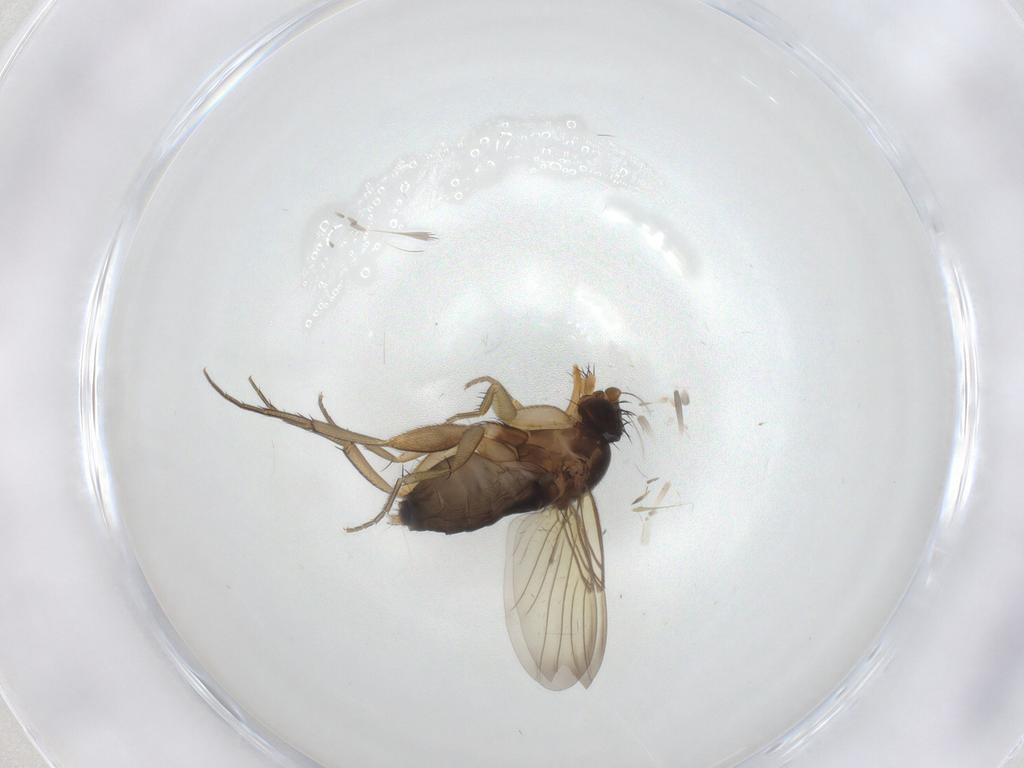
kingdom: Animalia
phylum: Arthropoda
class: Insecta
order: Diptera
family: Phoridae
